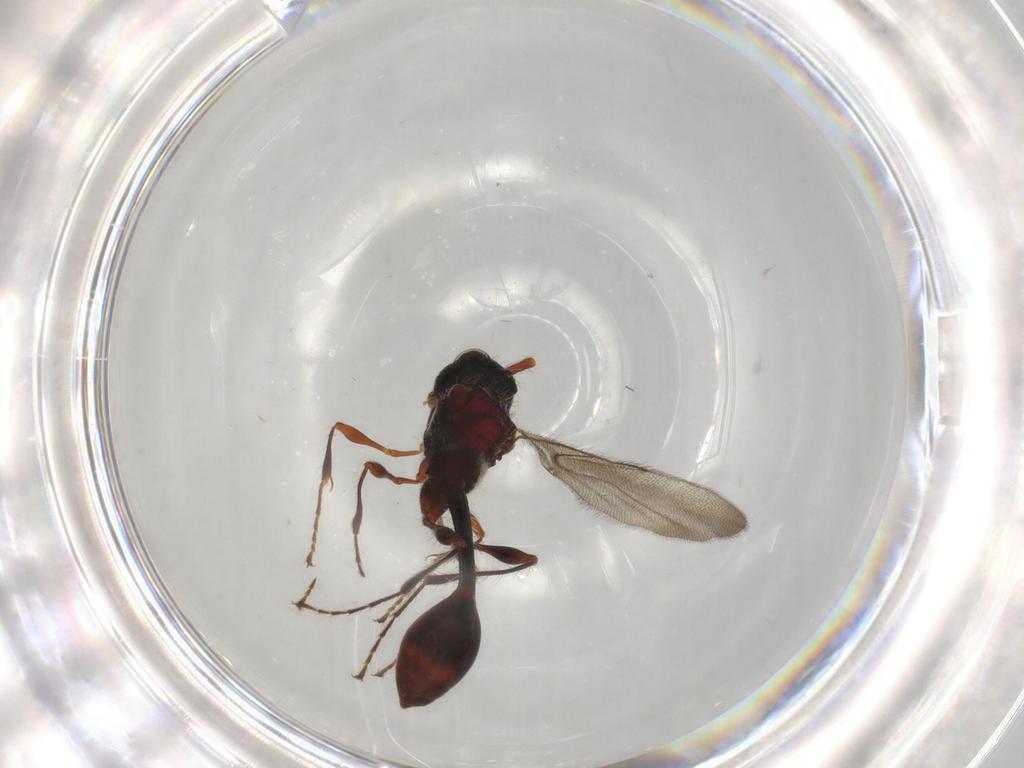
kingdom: Animalia
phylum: Arthropoda
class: Insecta
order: Hymenoptera
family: Diapriidae
